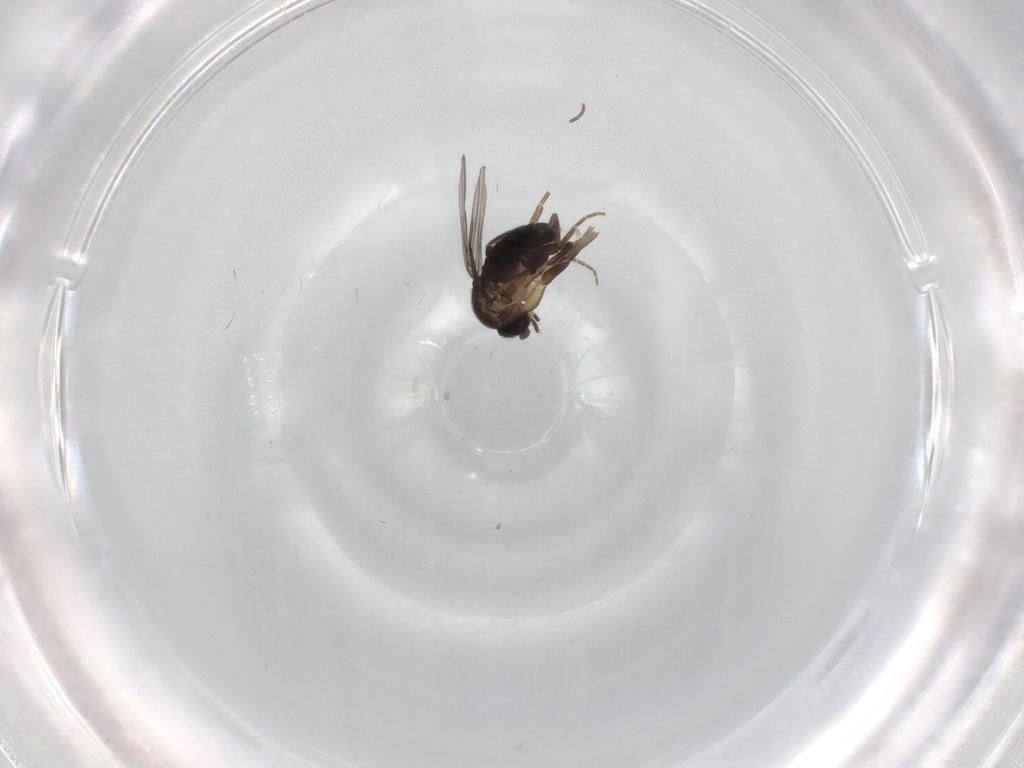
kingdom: Animalia
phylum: Arthropoda
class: Insecta
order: Diptera
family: Phoridae
